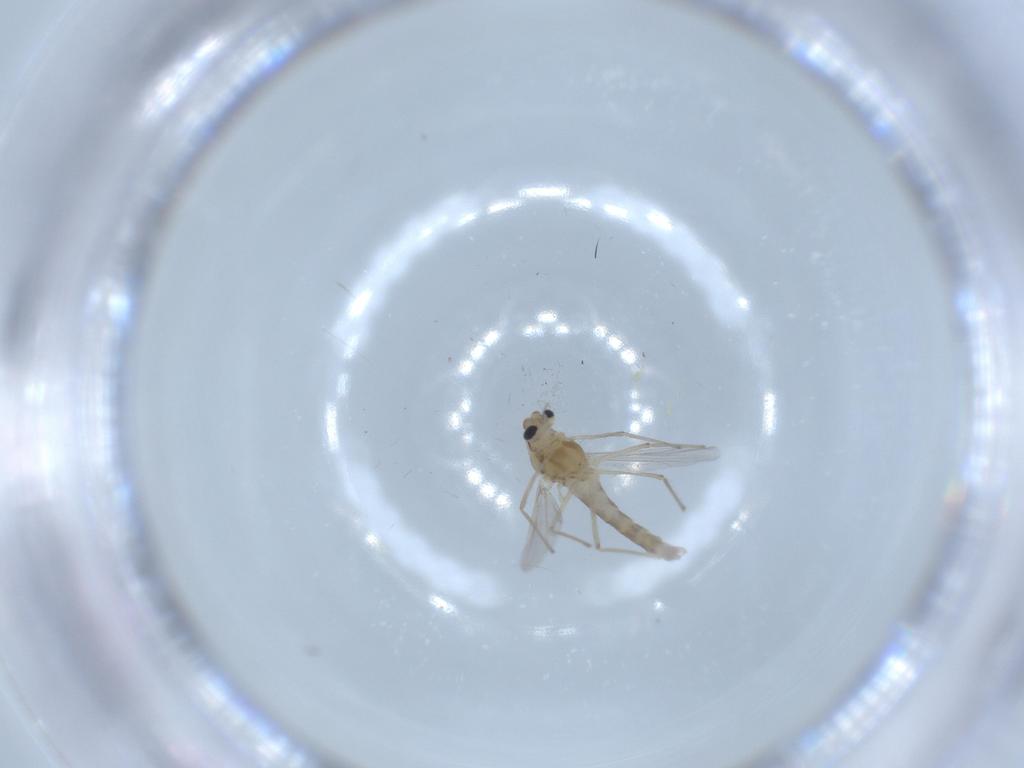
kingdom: Animalia
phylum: Arthropoda
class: Insecta
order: Diptera
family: Chironomidae
